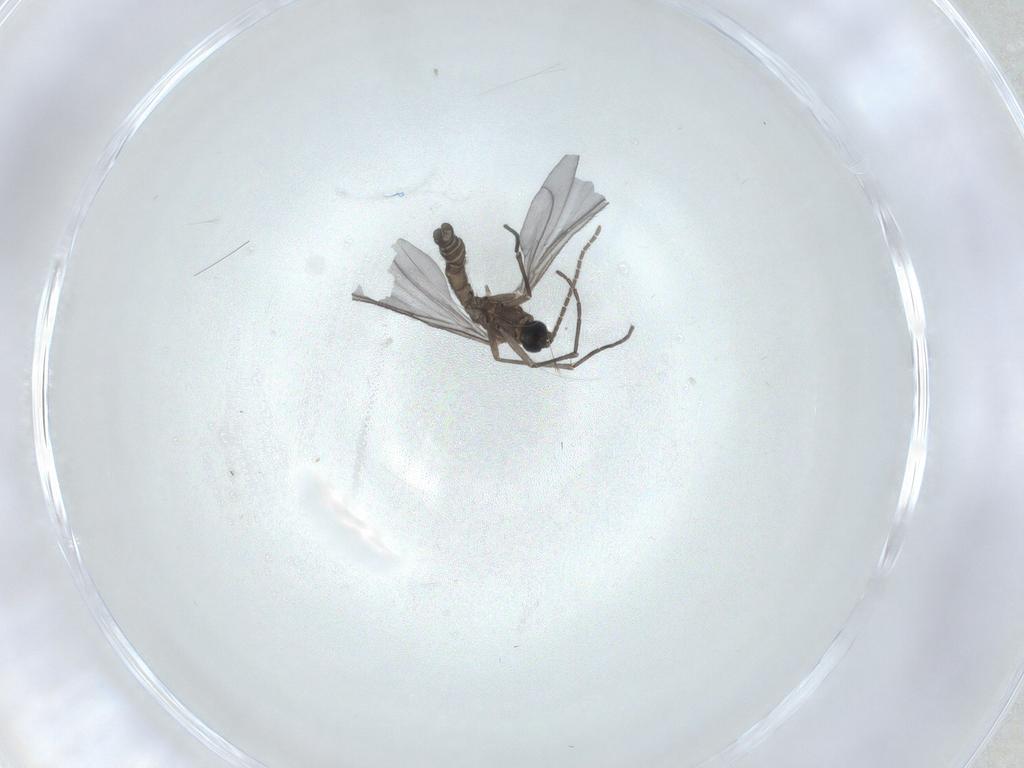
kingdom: Animalia
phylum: Arthropoda
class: Insecta
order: Diptera
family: Sciaridae
